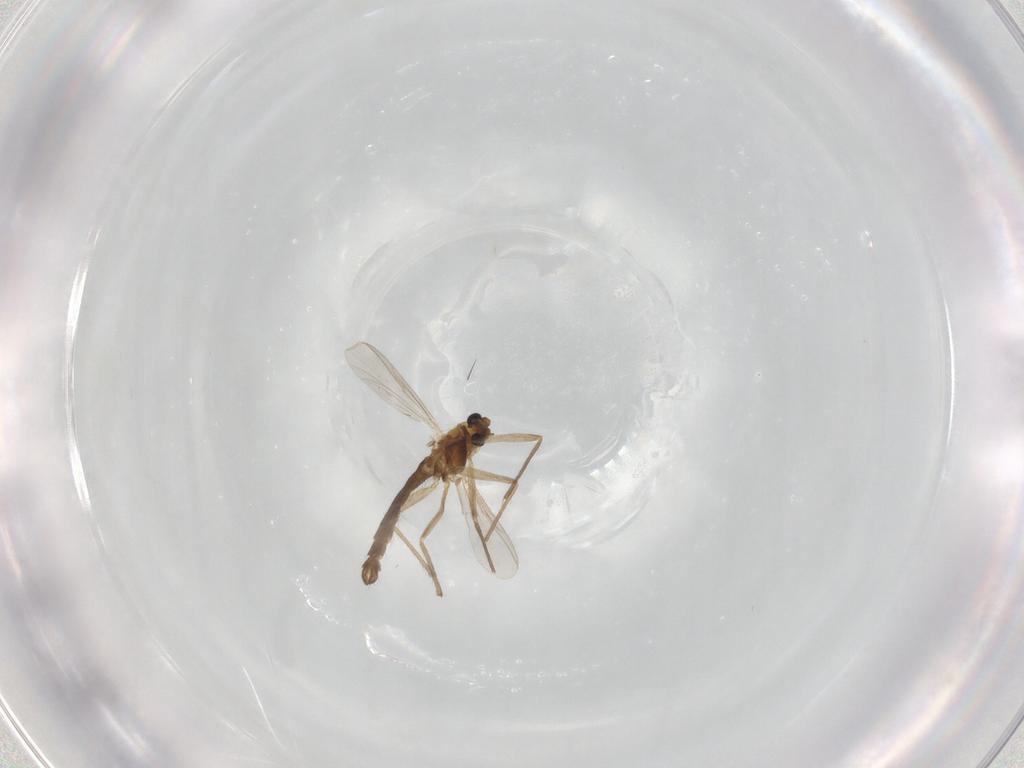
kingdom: Animalia
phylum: Arthropoda
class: Insecta
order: Diptera
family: Chironomidae
